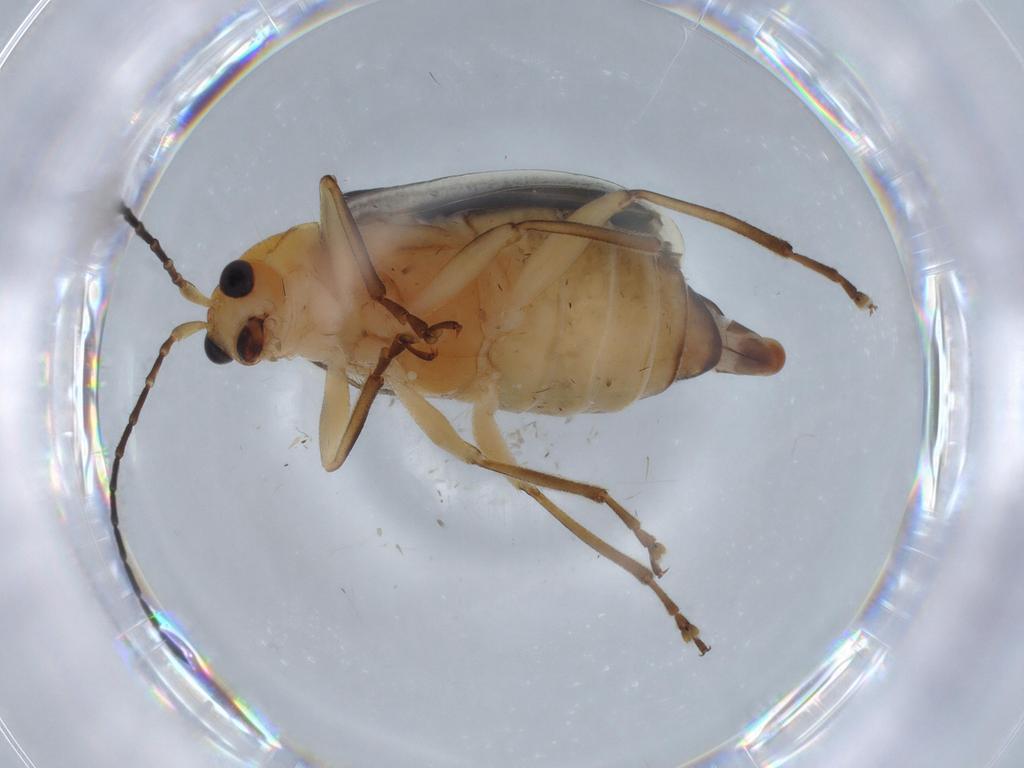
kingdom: Animalia
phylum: Arthropoda
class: Insecta
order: Coleoptera
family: Chrysomelidae
